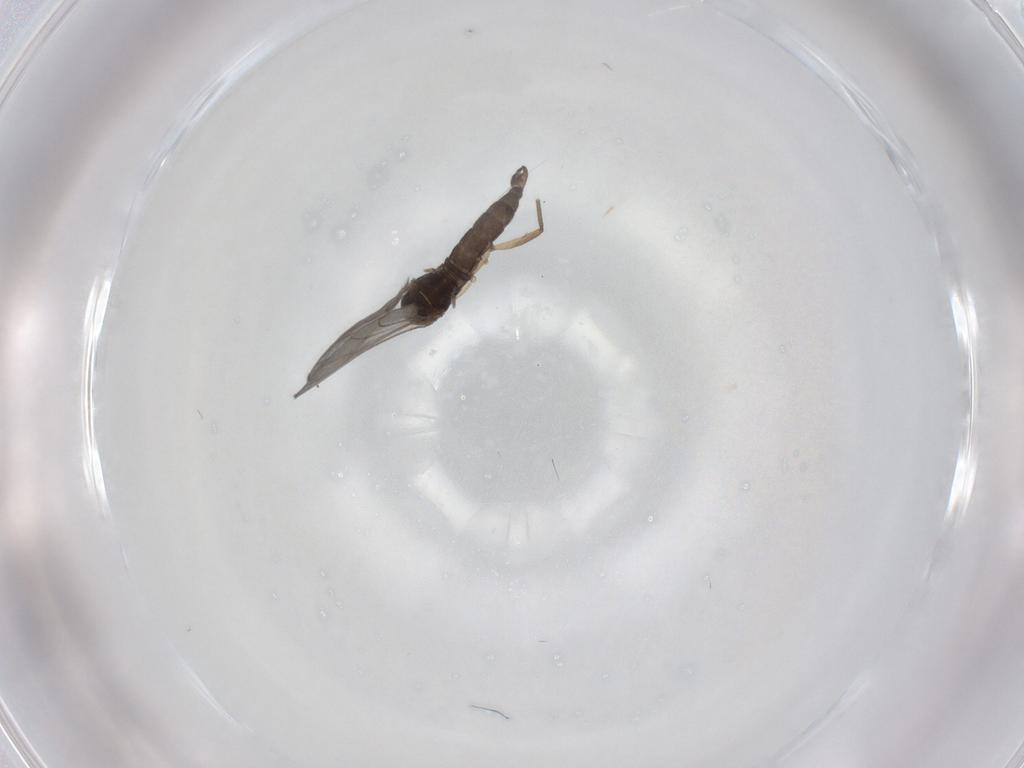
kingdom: Animalia
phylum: Arthropoda
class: Insecta
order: Diptera
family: Sciaridae
